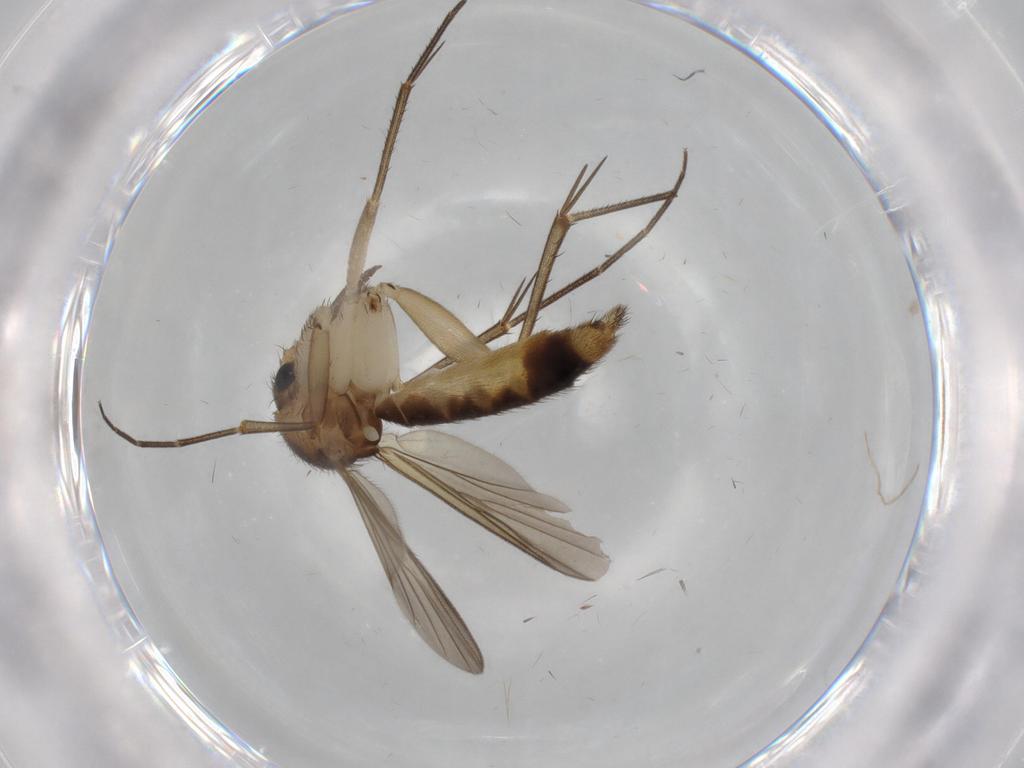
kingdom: Animalia
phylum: Arthropoda
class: Insecta
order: Diptera
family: Mycetophilidae
